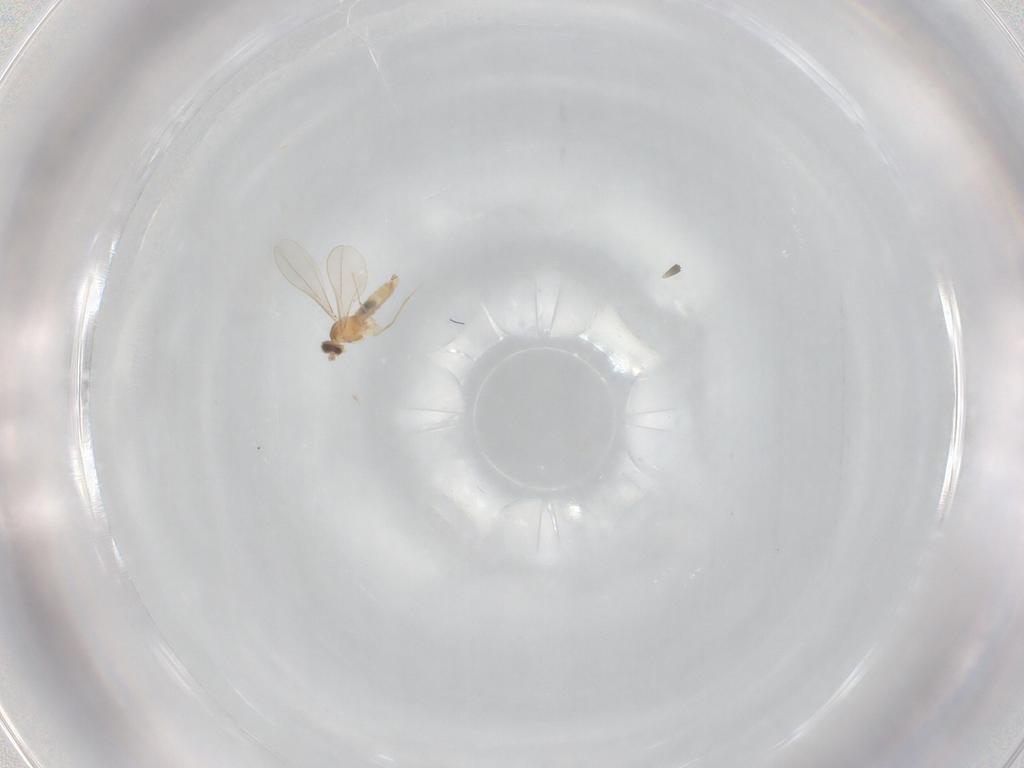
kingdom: Animalia
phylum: Arthropoda
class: Insecta
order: Diptera
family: Cecidomyiidae
